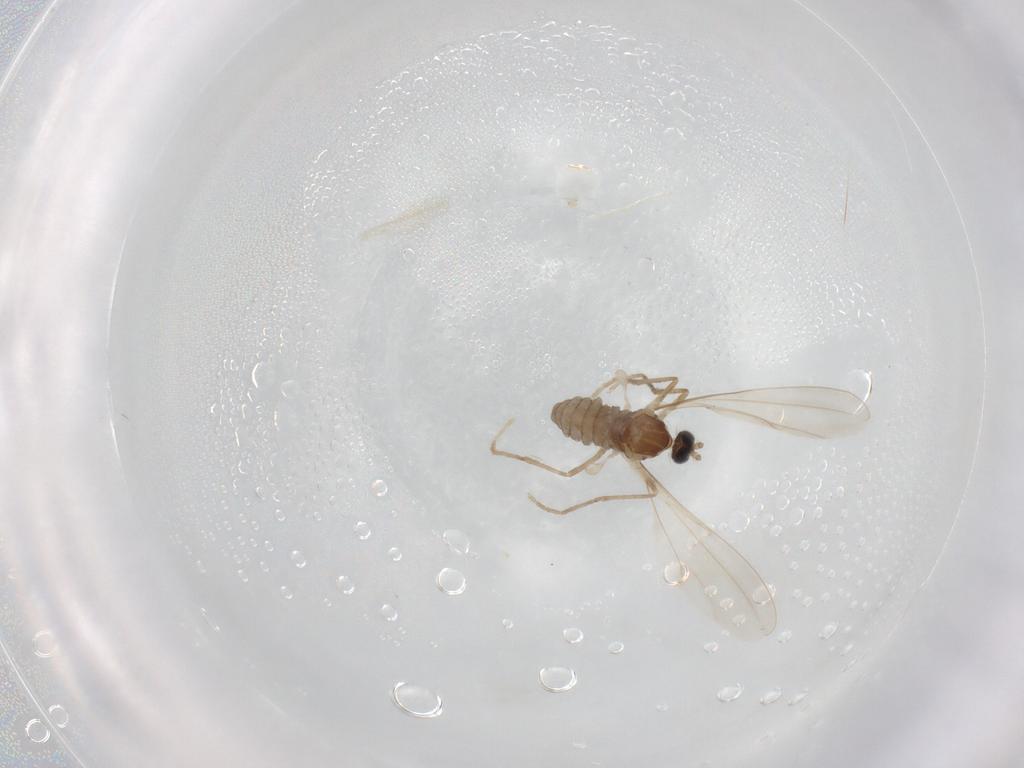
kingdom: Animalia
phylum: Arthropoda
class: Insecta
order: Diptera
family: Cecidomyiidae
